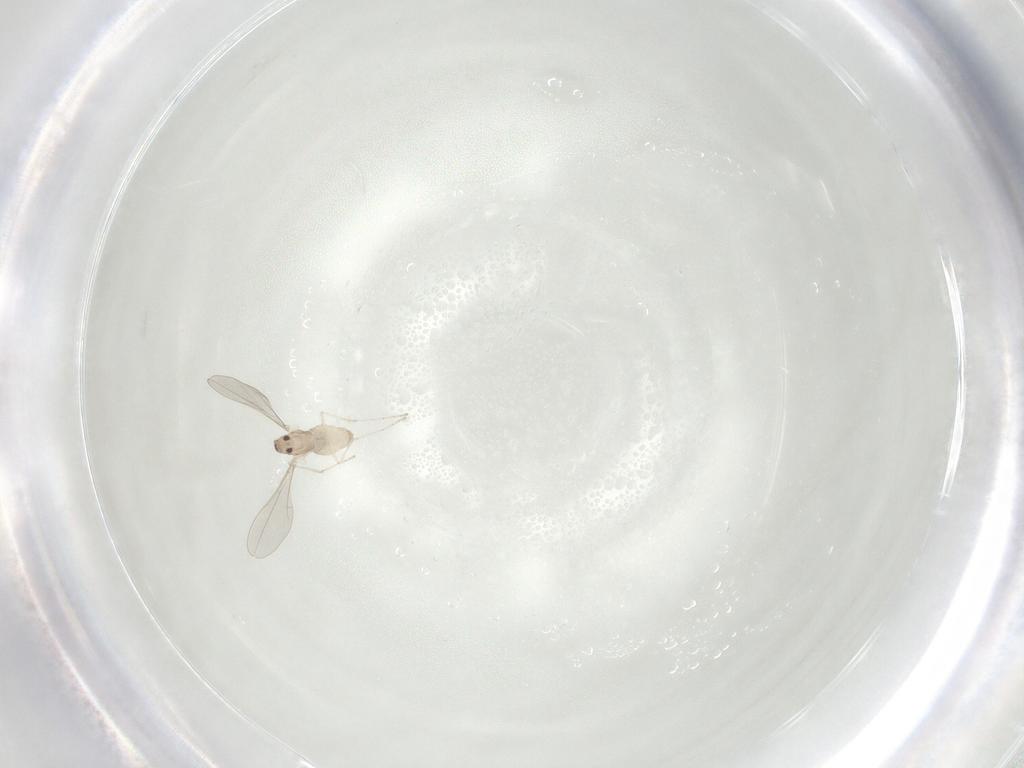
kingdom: Animalia
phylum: Arthropoda
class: Insecta
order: Diptera
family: Cecidomyiidae
